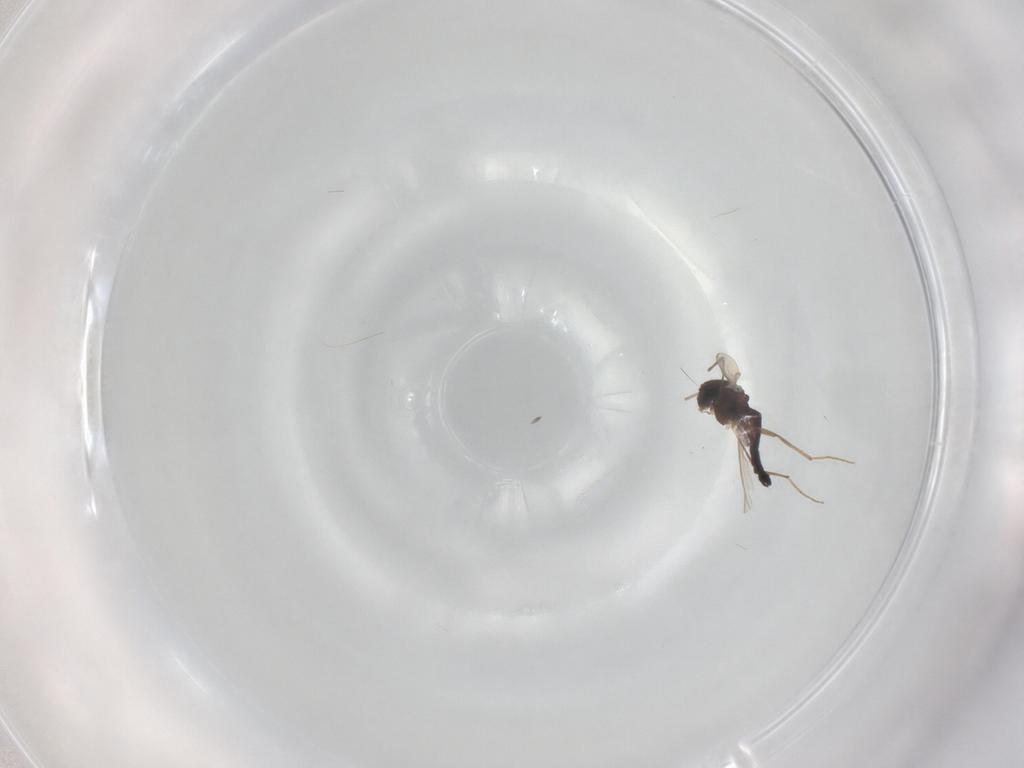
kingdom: Animalia
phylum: Arthropoda
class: Insecta
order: Diptera
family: Chironomidae
